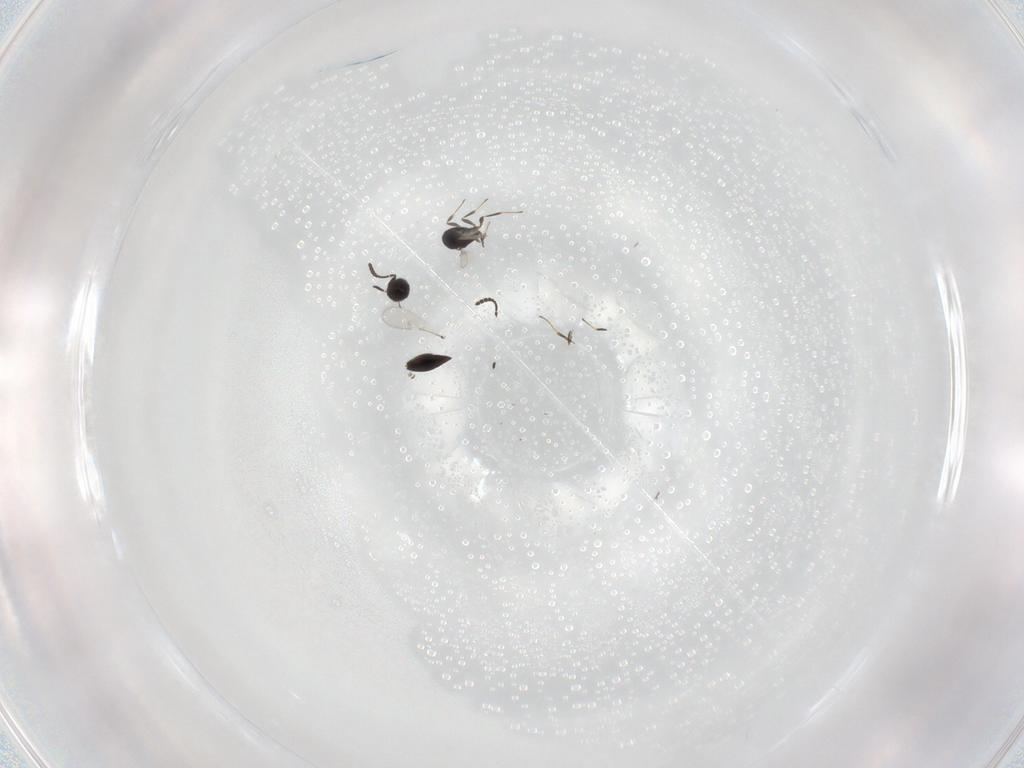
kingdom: Animalia
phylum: Arthropoda
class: Insecta
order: Hymenoptera
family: Scelionidae
